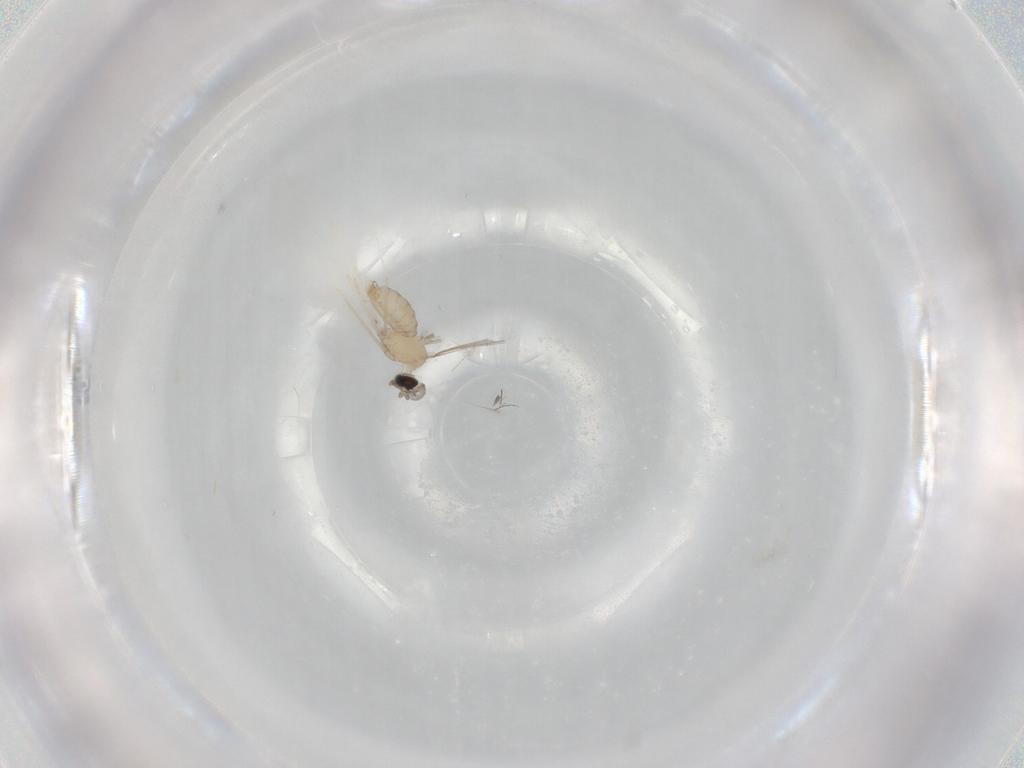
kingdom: Animalia
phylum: Arthropoda
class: Insecta
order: Diptera
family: Cecidomyiidae
